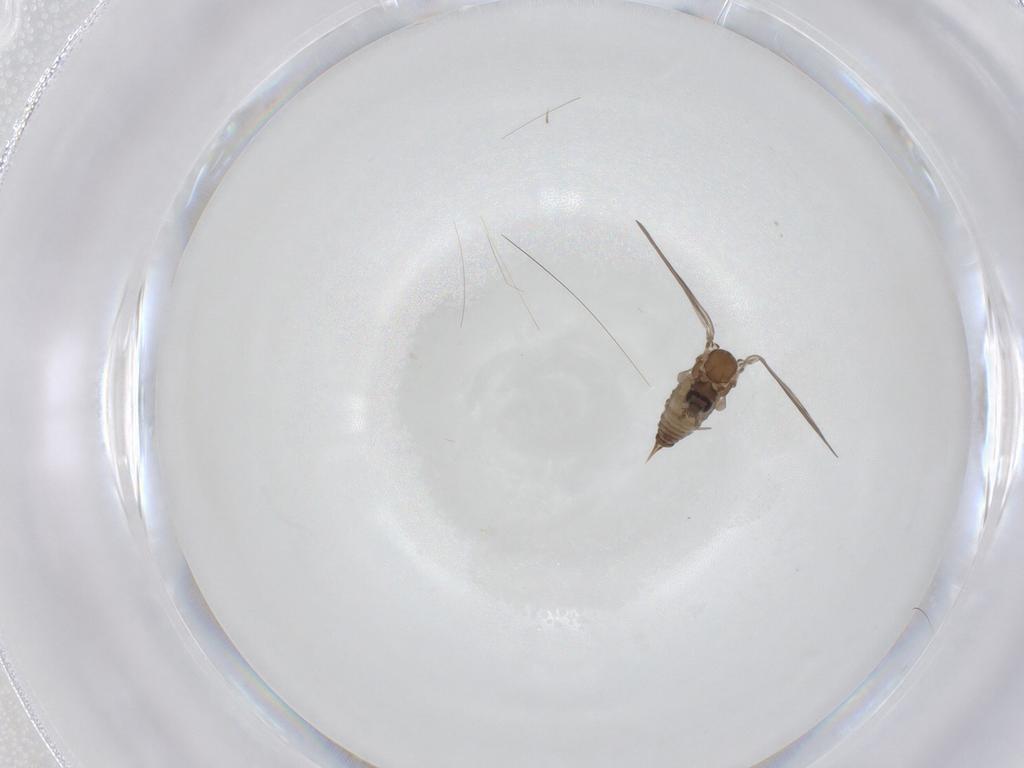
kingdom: Animalia
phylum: Arthropoda
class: Insecta
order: Diptera
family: Psychodidae
